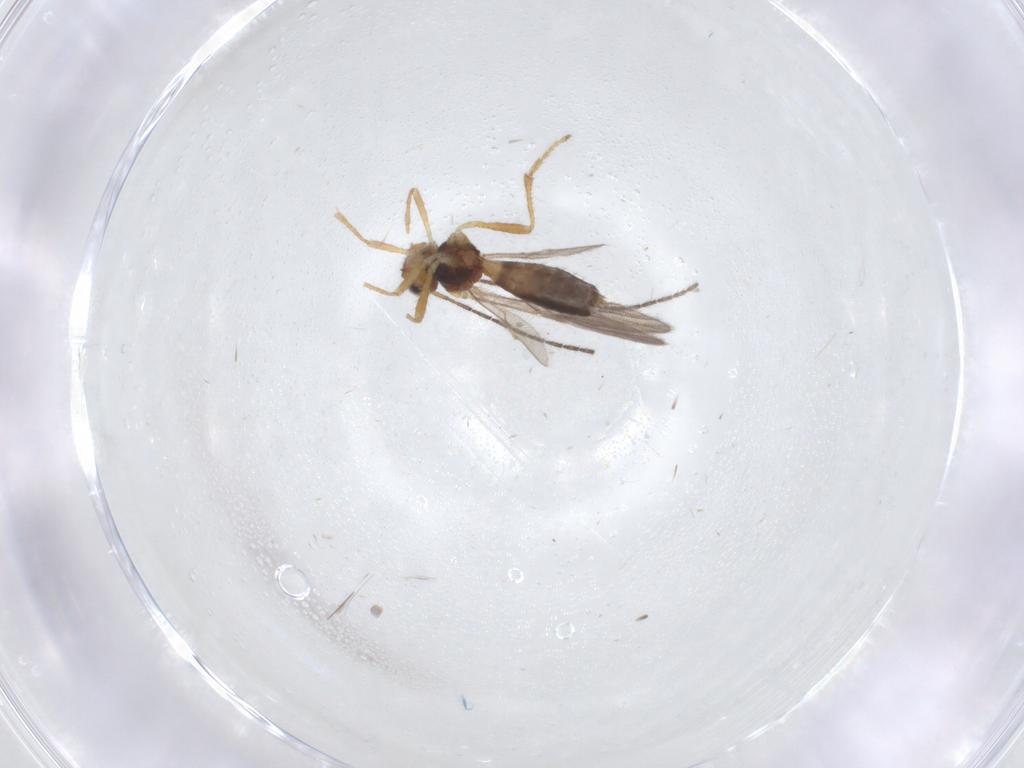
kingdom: Animalia
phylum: Arthropoda
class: Insecta
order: Hymenoptera
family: Braconidae
